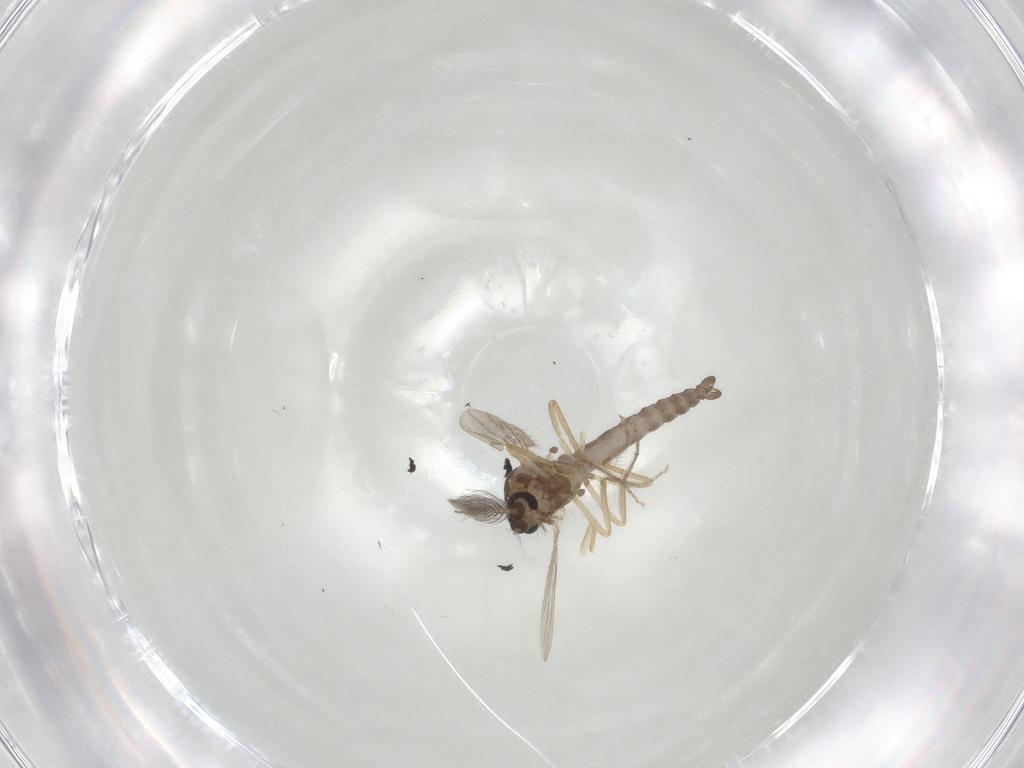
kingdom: Animalia
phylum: Arthropoda
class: Insecta
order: Diptera
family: Ceratopogonidae
